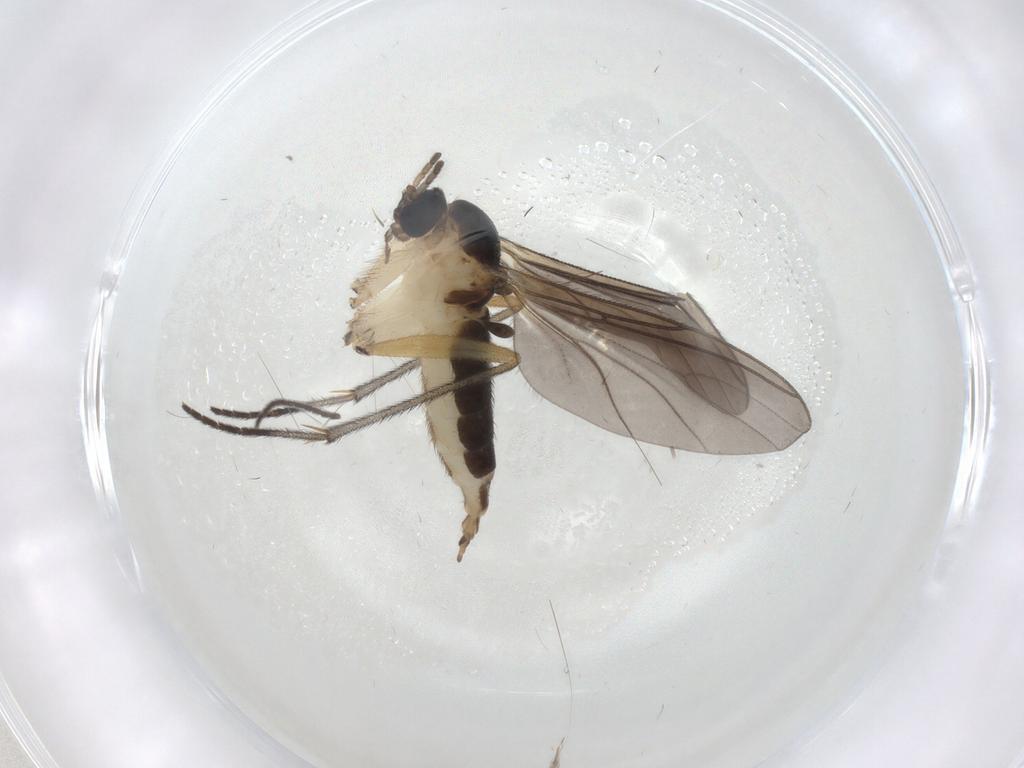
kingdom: Animalia
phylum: Arthropoda
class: Insecta
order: Diptera
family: Sciaridae
